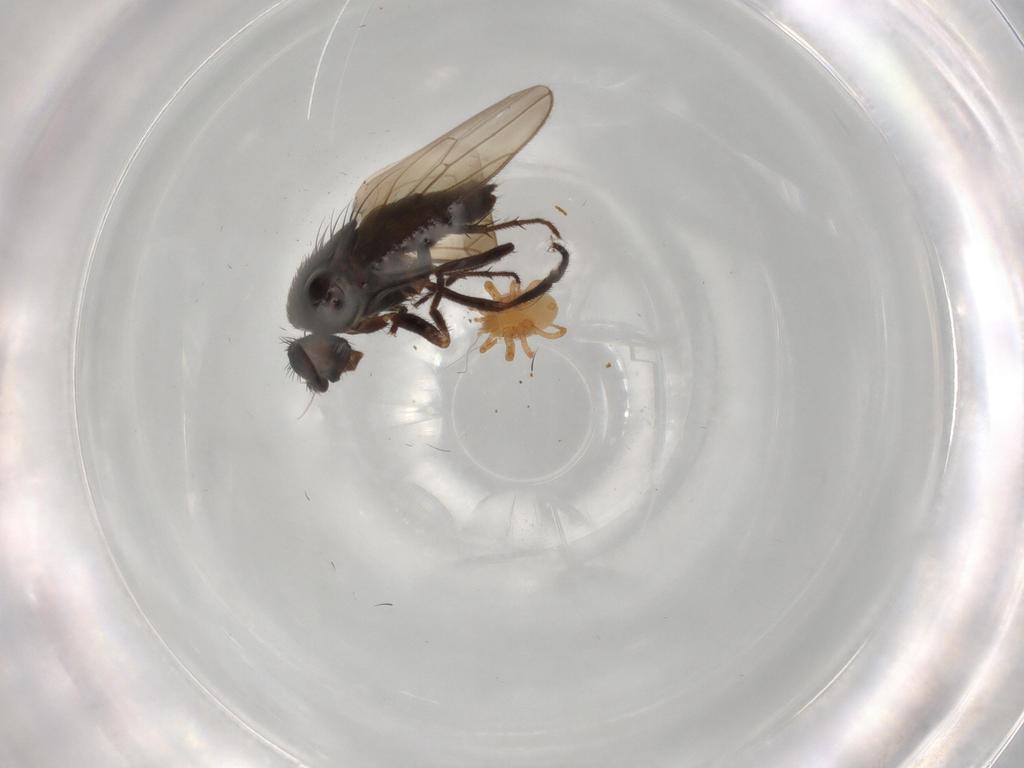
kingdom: Animalia
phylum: Arthropoda
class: Insecta
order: Diptera
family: Sphaeroceridae
